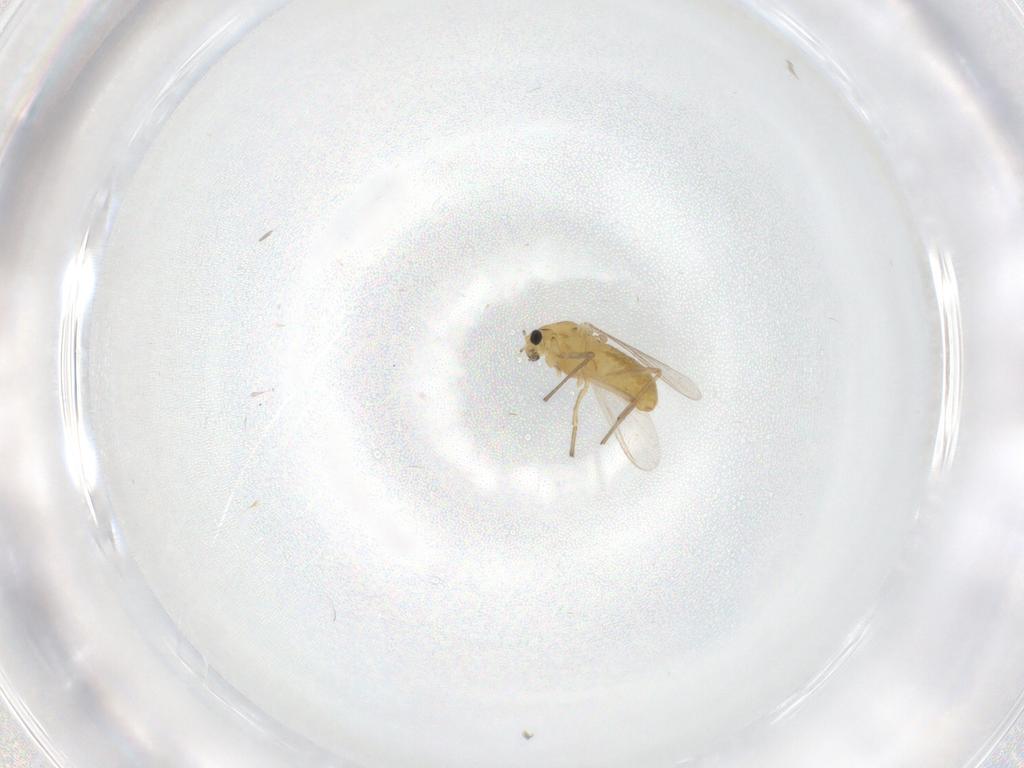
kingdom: Animalia
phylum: Arthropoda
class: Insecta
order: Diptera
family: Chironomidae
